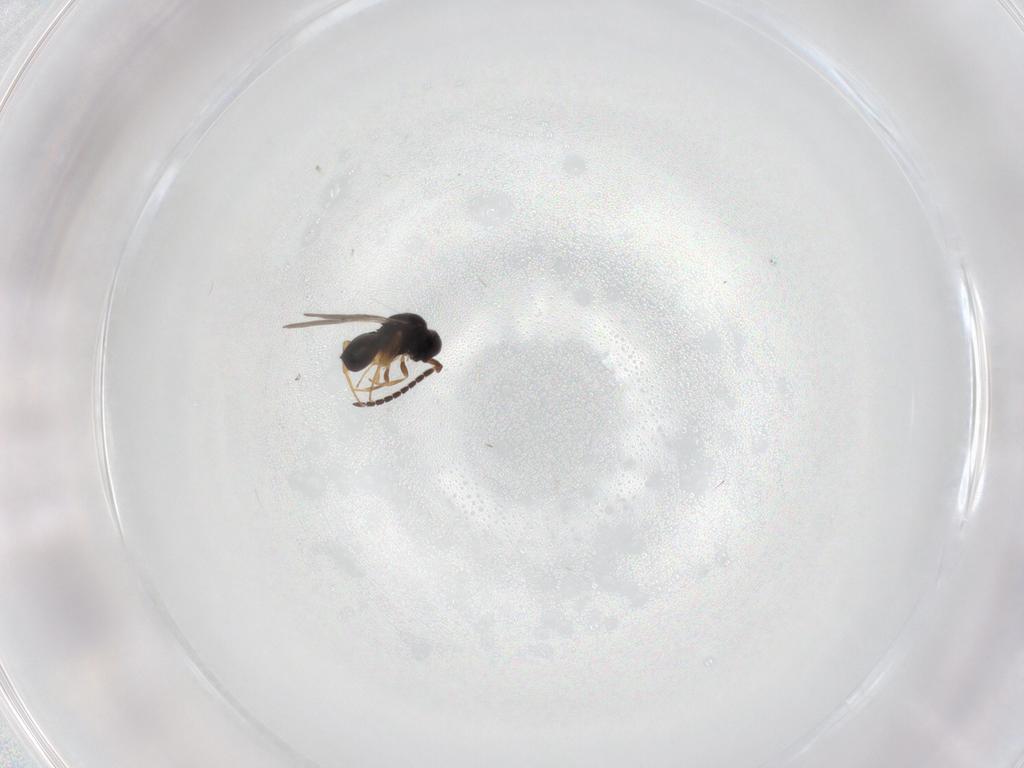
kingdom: Animalia
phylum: Arthropoda
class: Insecta
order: Hymenoptera
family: Ceraphronidae
